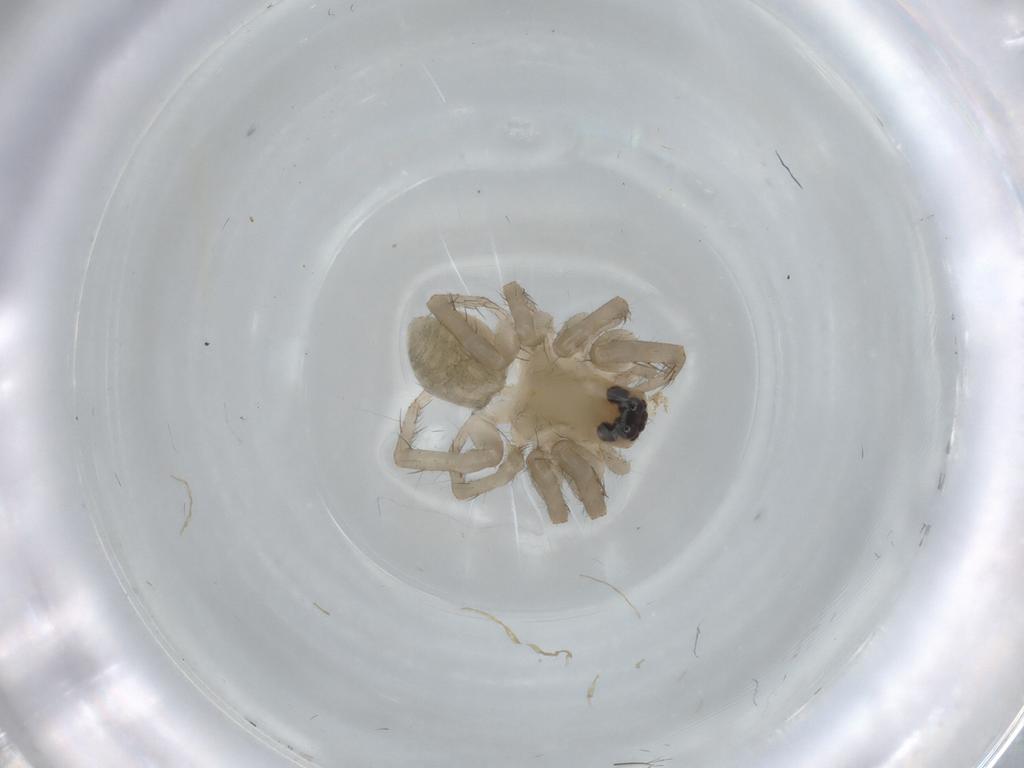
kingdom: Animalia
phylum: Arthropoda
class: Arachnida
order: Araneae
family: Lycosidae
